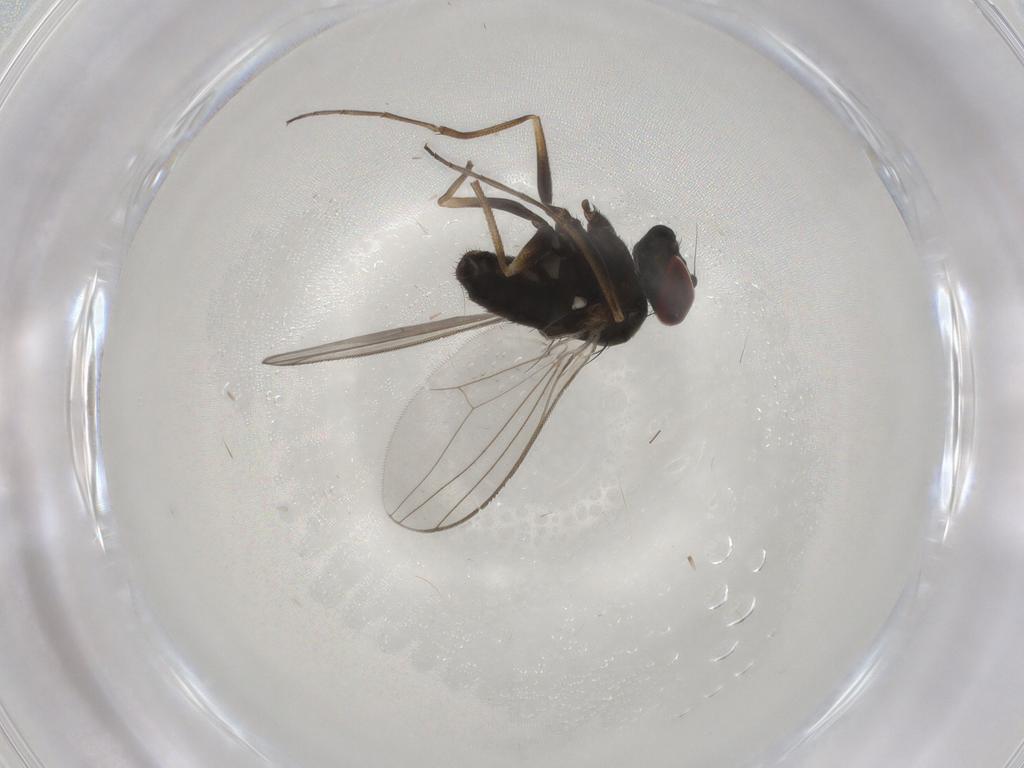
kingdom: Animalia
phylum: Arthropoda
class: Insecta
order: Diptera
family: Dolichopodidae
